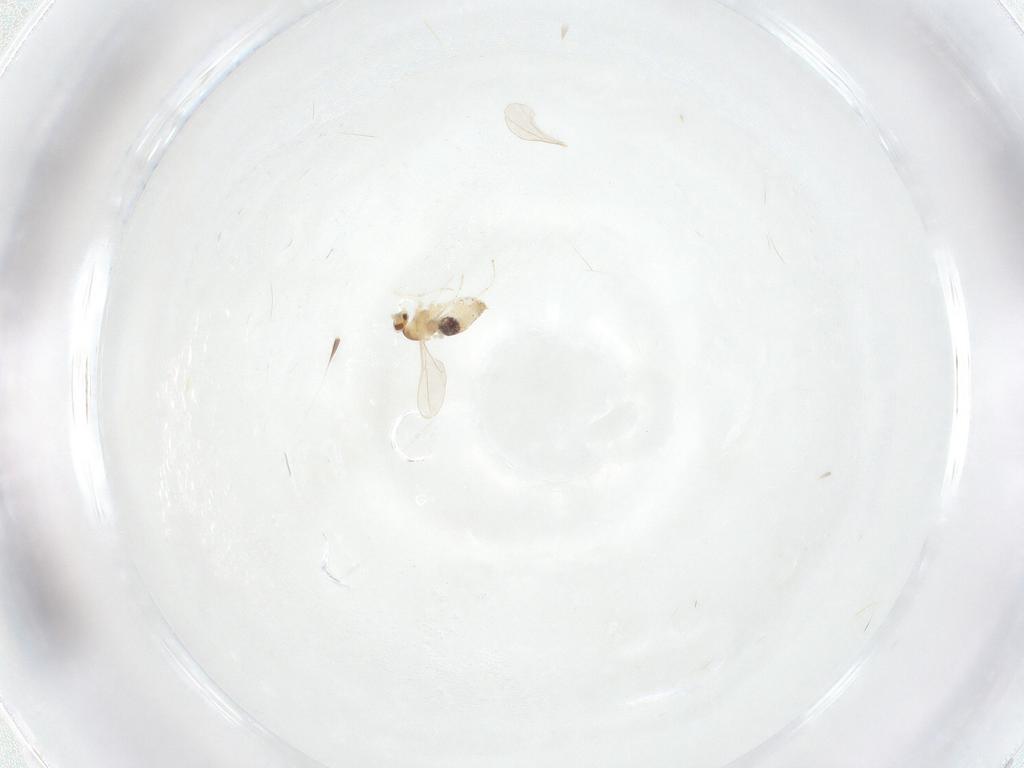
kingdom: Animalia
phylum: Arthropoda
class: Insecta
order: Diptera
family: Cecidomyiidae
